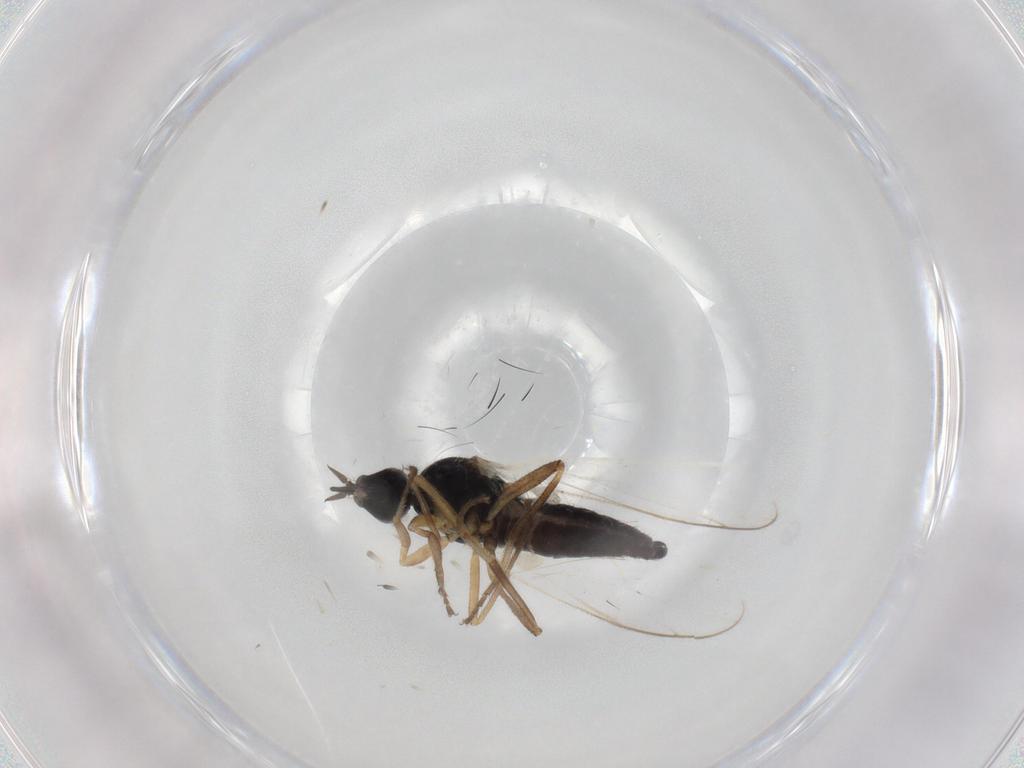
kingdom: Animalia
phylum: Arthropoda
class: Insecta
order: Diptera
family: Hybotidae
